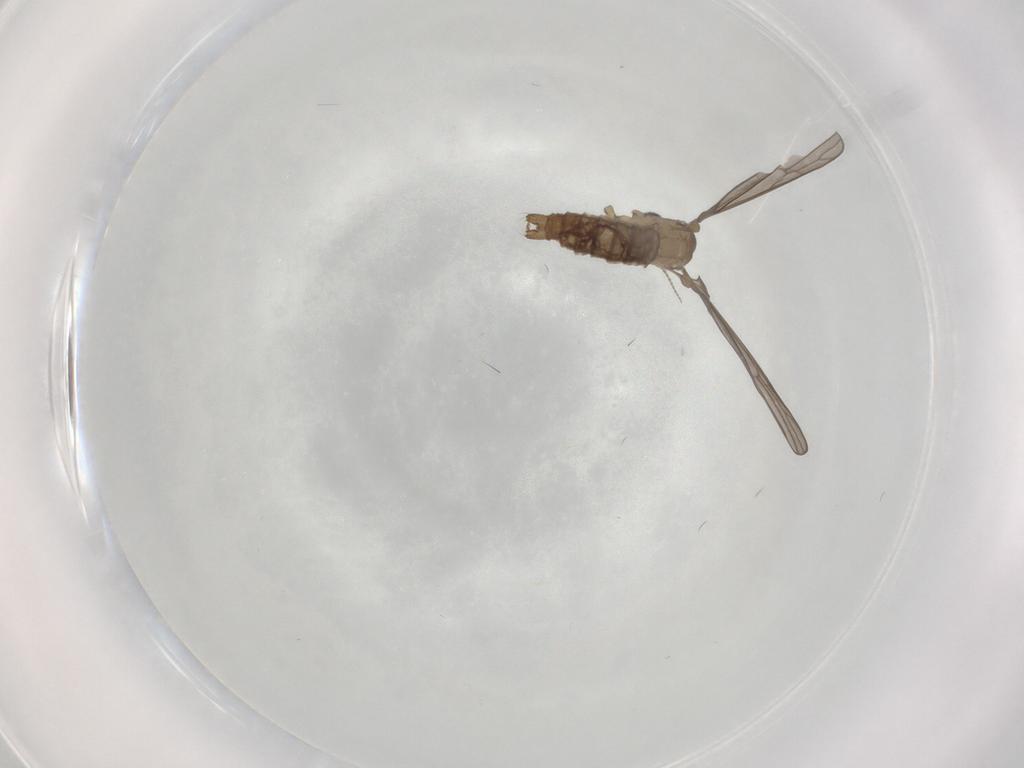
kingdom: Animalia
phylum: Arthropoda
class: Insecta
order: Diptera
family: Limoniidae
